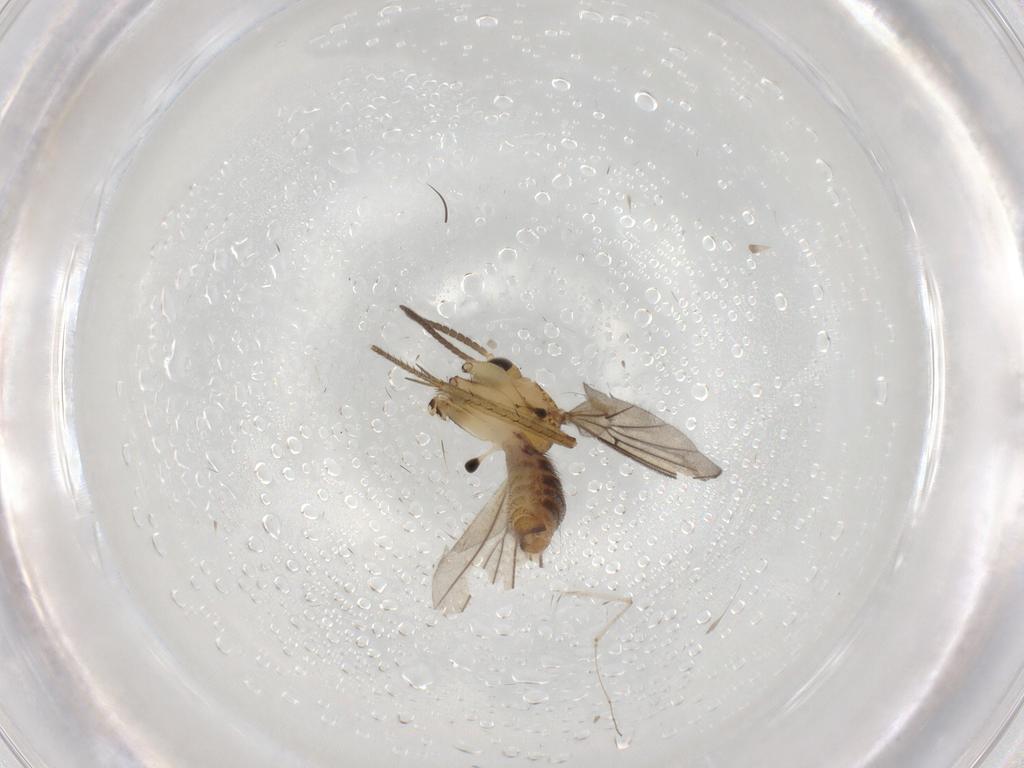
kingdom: Animalia
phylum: Arthropoda
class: Insecta
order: Diptera
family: Cecidomyiidae
